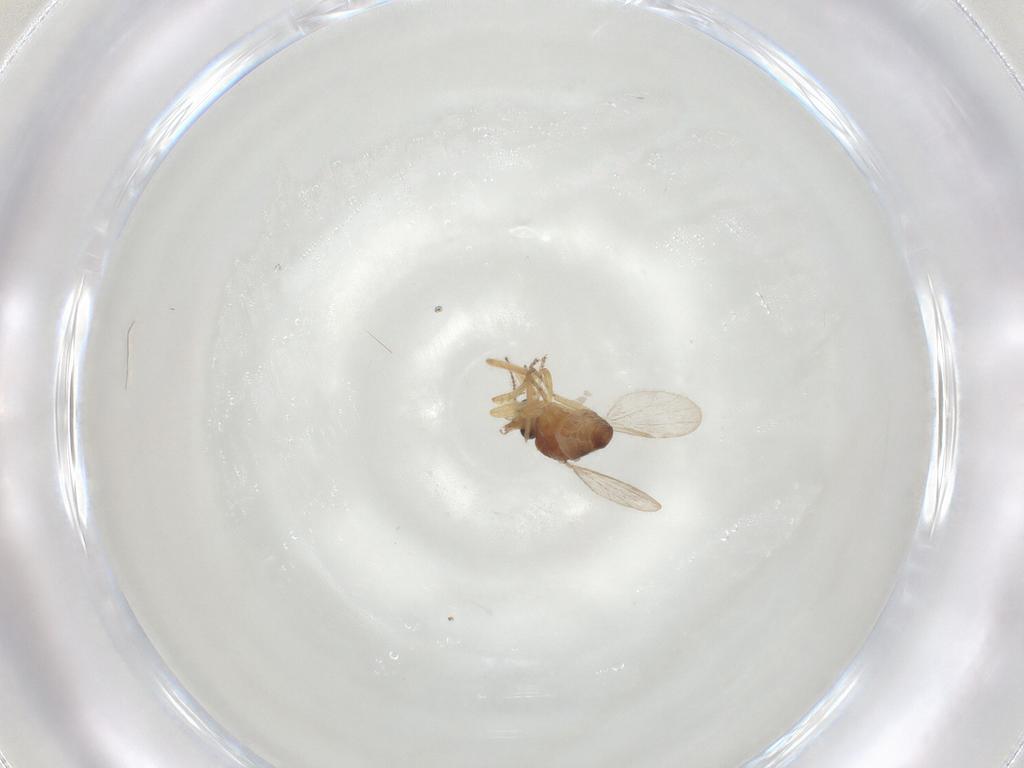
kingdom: Animalia
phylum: Arthropoda
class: Insecta
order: Diptera
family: Ceratopogonidae
